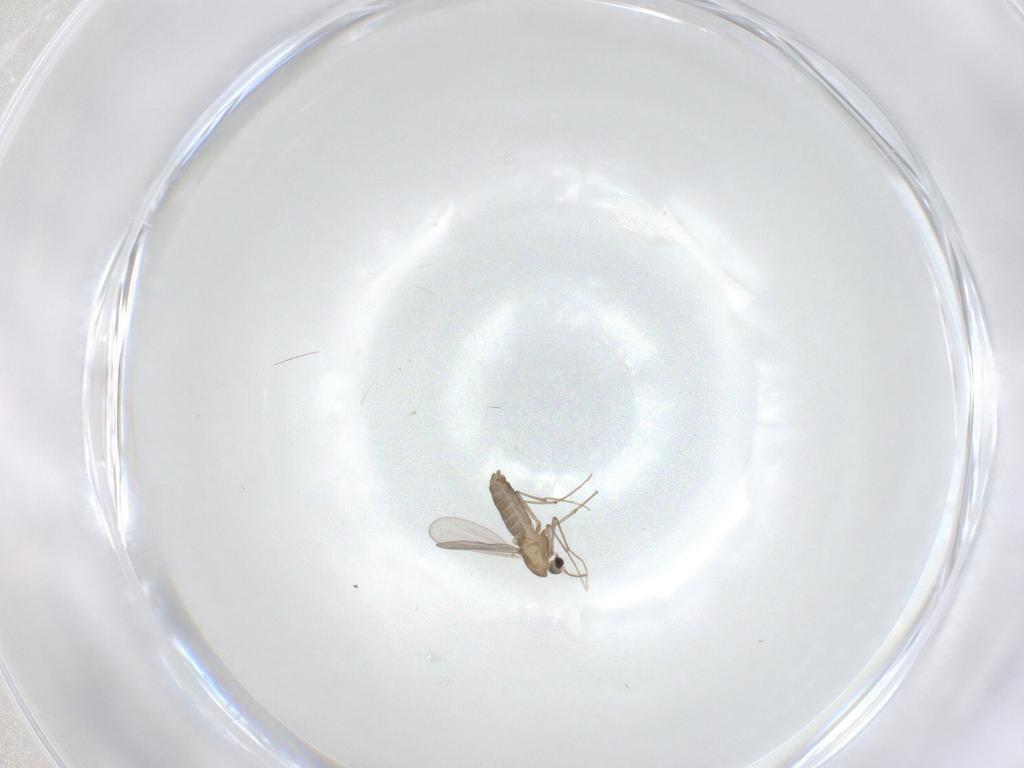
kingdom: Animalia
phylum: Arthropoda
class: Insecta
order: Diptera
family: Chironomidae
